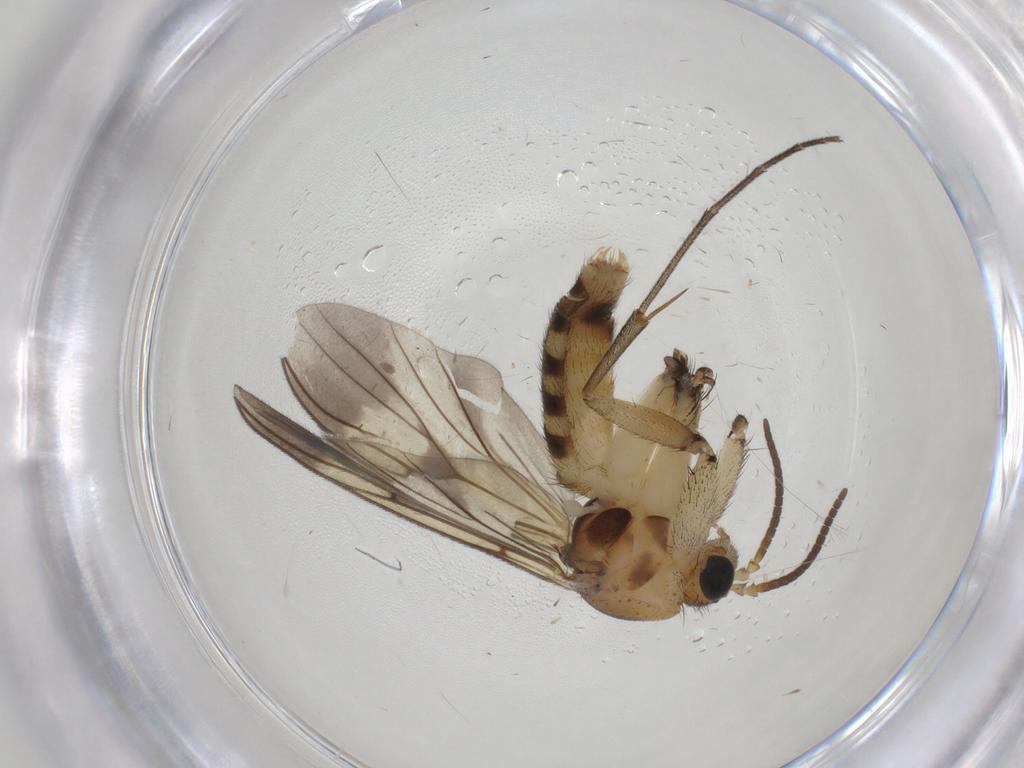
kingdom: Animalia
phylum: Arthropoda
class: Insecta
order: Diptera
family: Mycetophilidae
